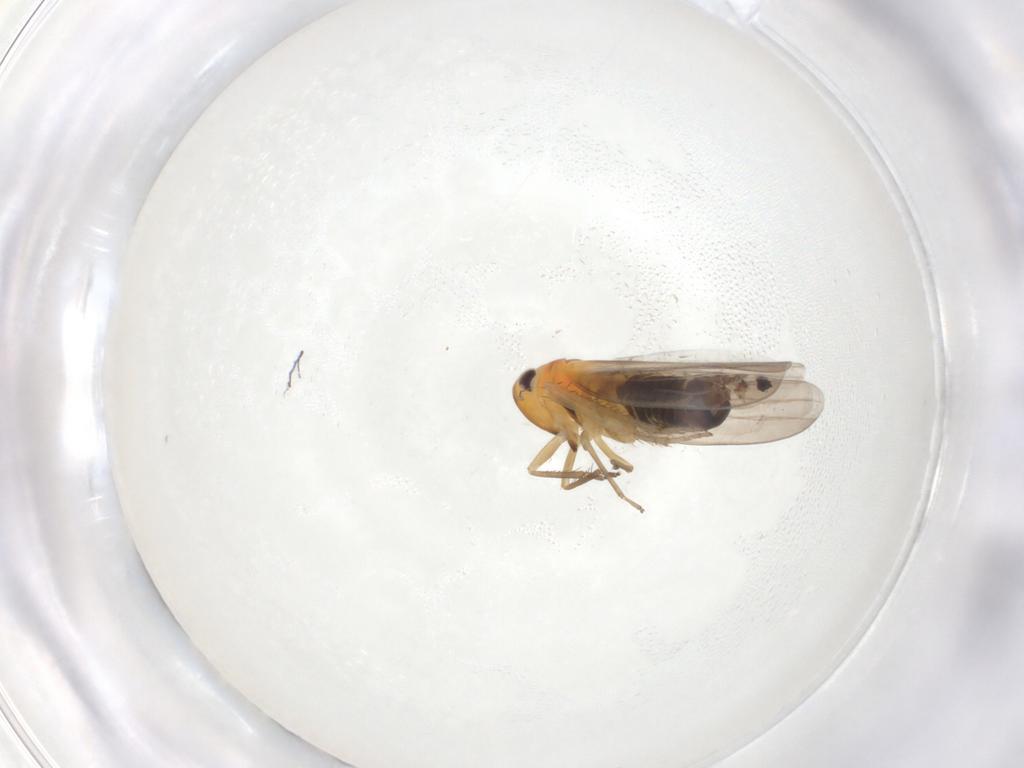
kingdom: Animalia
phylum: Arthropoda
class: Insecta
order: Hemiptera
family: Cicadellidae
